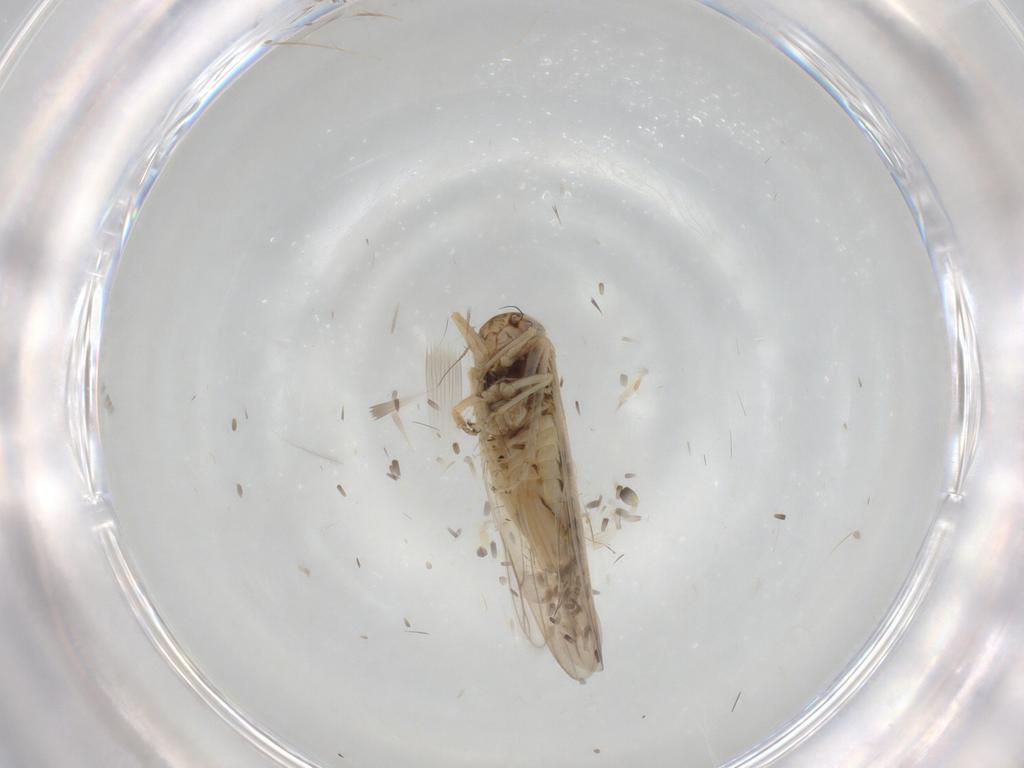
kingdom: Animalia
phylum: Arthropoda
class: Insecta
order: Hemiptera
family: Cicadellidae
